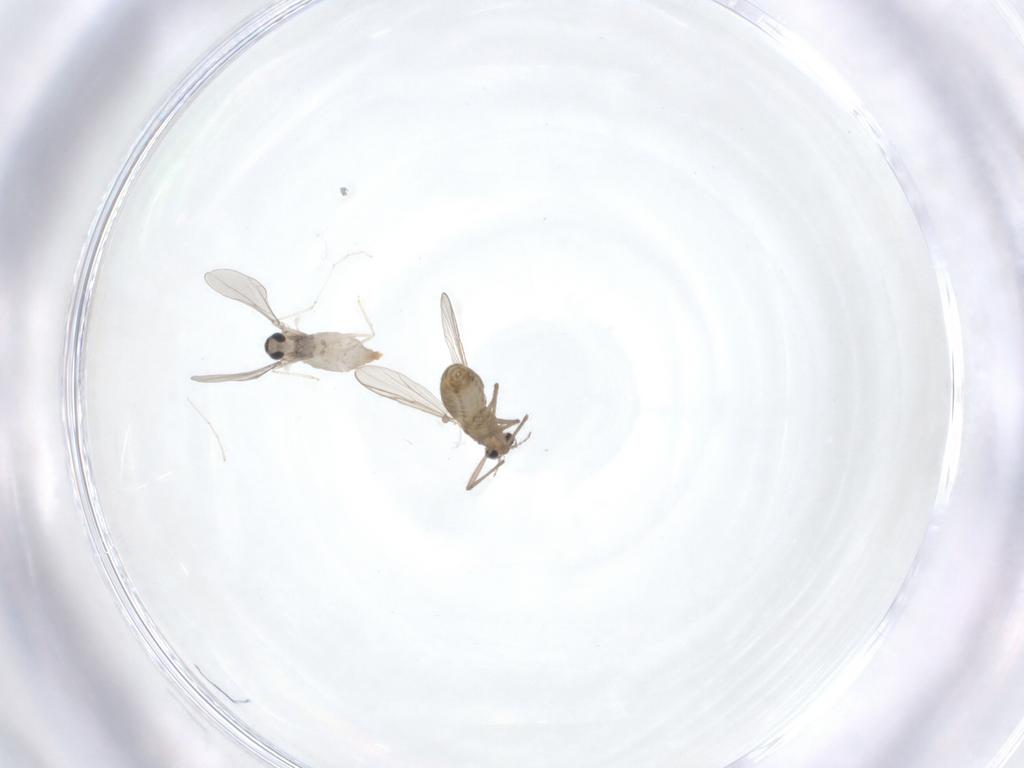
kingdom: Animalia
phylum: Arthropoda
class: Insecta
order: Diptera
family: Chironomidae
